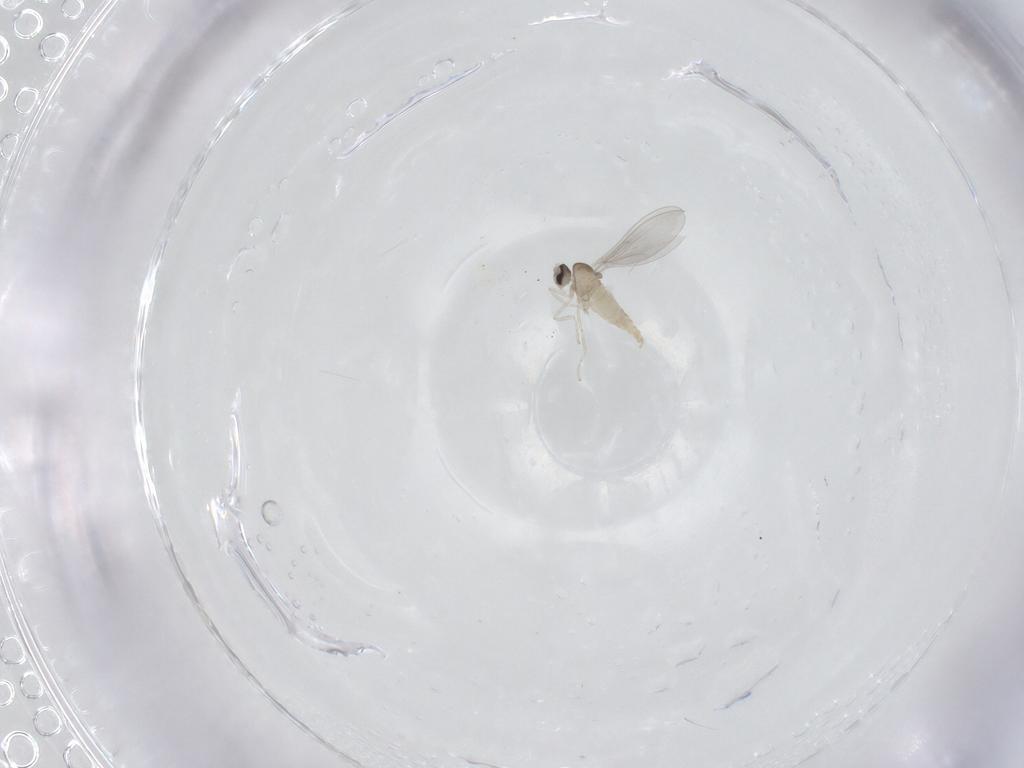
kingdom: Animalia
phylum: Arthropoda
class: Insecta
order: Diptera
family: Cecidomyiidae
